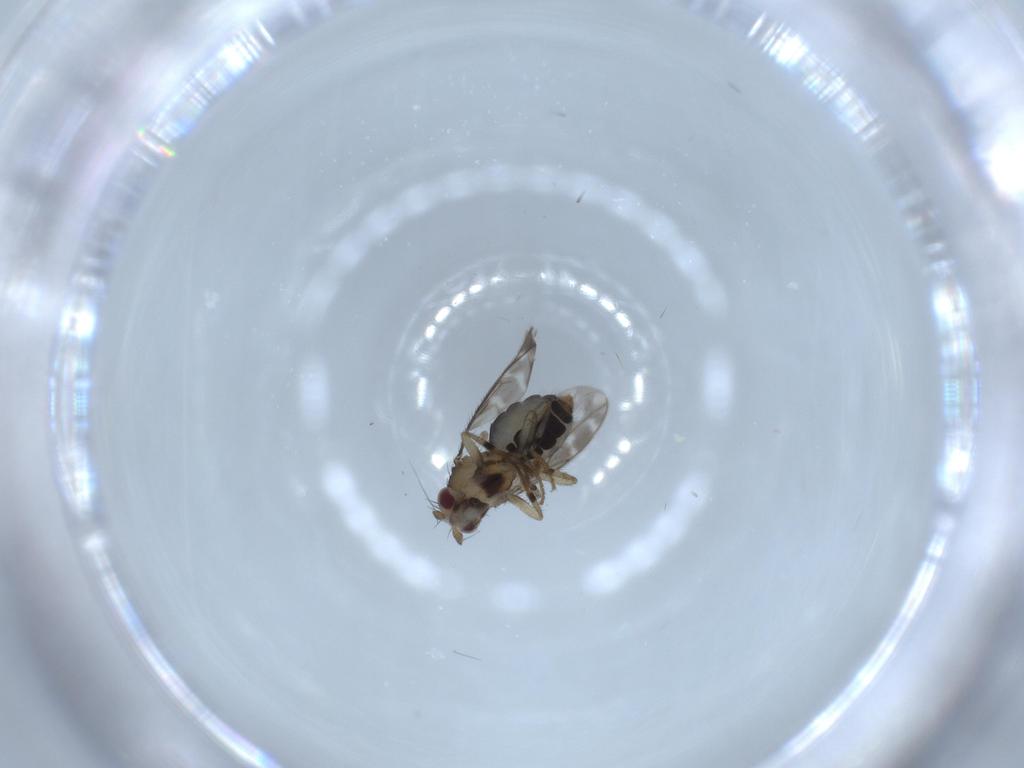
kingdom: Animalia
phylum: Arthropoda
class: Insecta
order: Diptera
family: Sphaeroceridae
